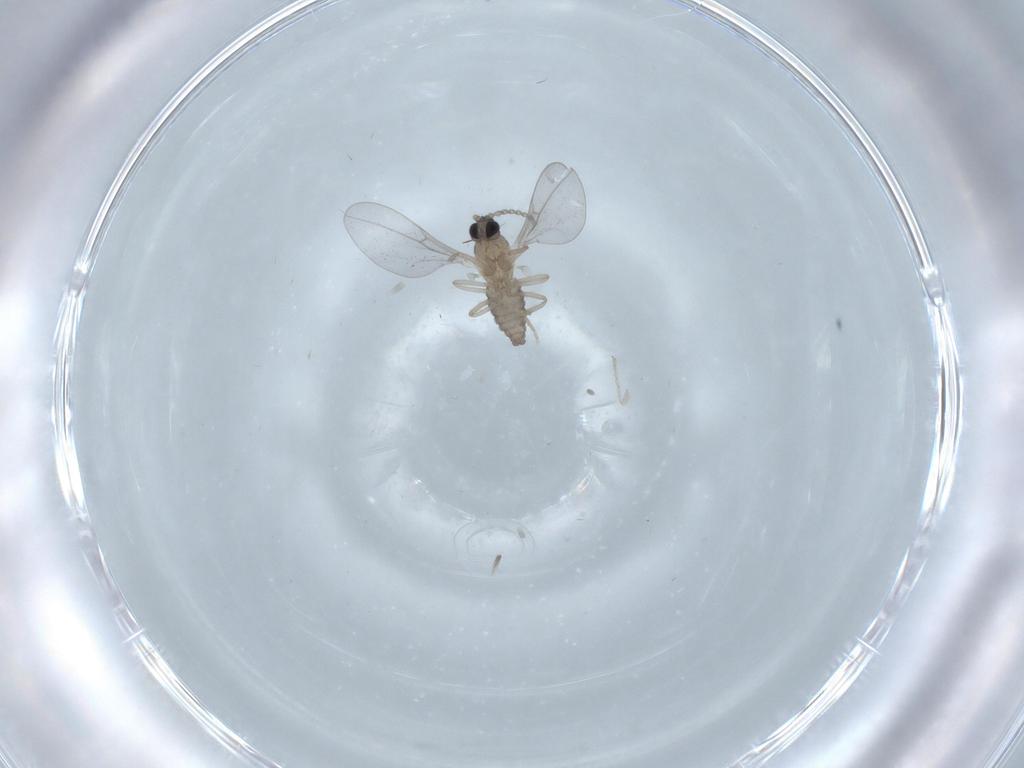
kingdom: Animalia
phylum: Arthropoda
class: Insecta
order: Diptera
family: Cecidomyiidae
